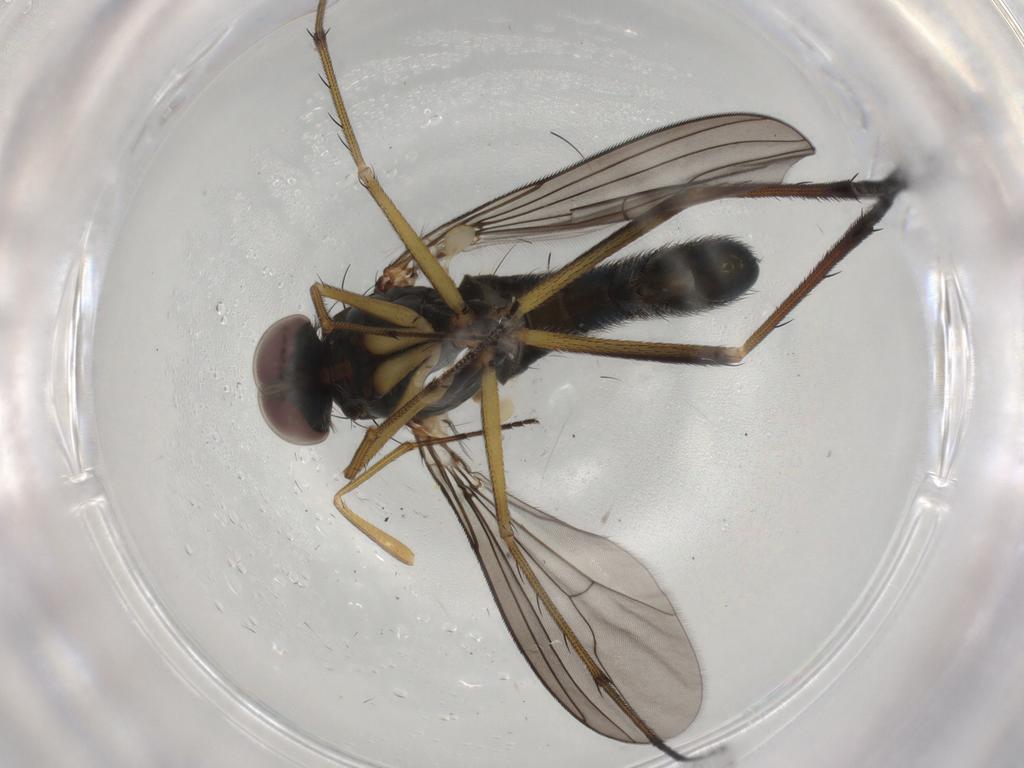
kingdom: Animalia
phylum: Arthropoda
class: Insecta
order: Diptera
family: Dolichopodidae
